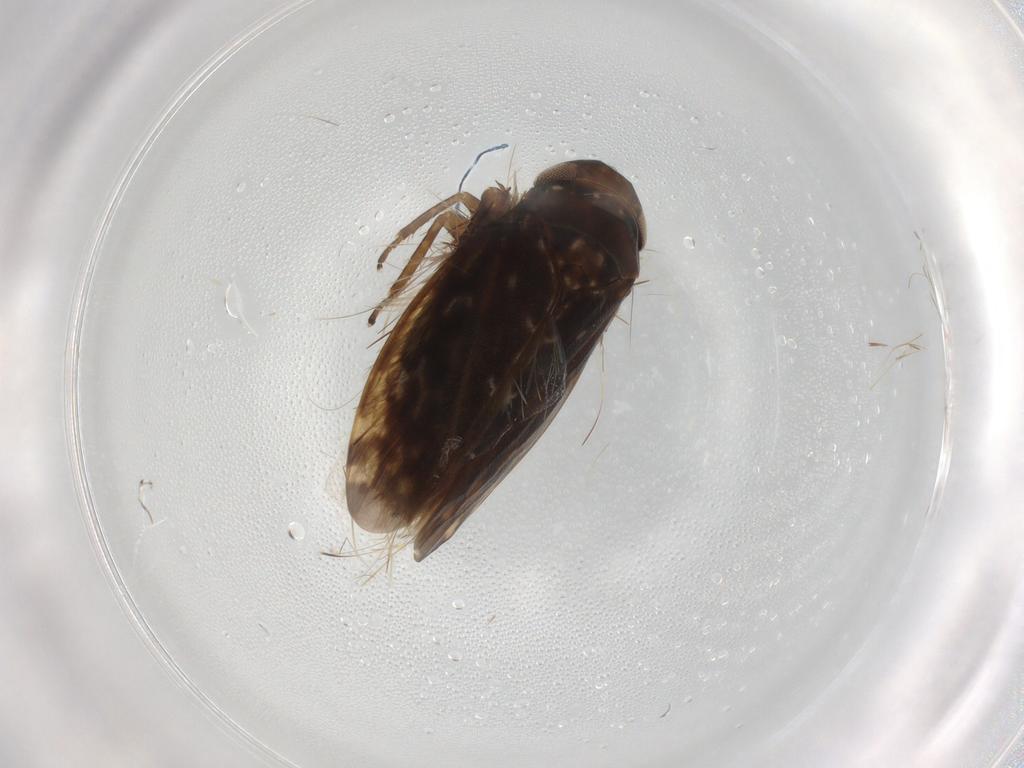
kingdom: Animalia
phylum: Arthropoda
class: Insecta
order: Hemiptera
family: Cicadellidae
